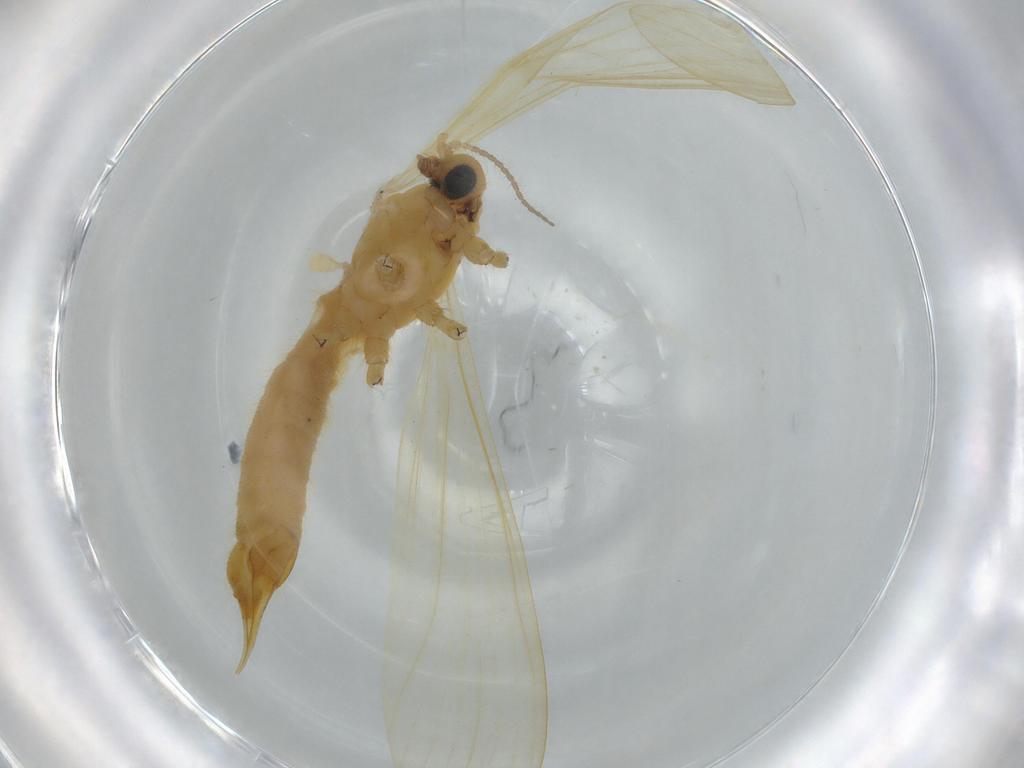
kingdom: Animalia
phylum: Arthropoda
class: Insecta
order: Diptera
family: Limoniidae
